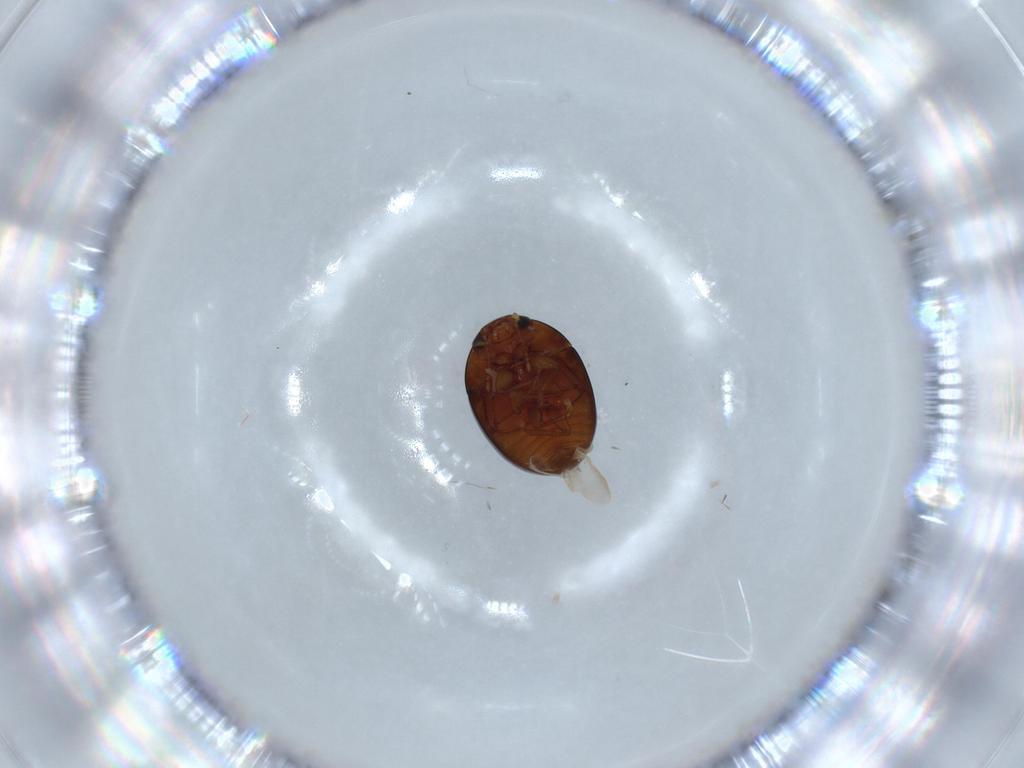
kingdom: Animalia
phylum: Arthropoda
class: Insecta
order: Coleoptera
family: Phalacridae
